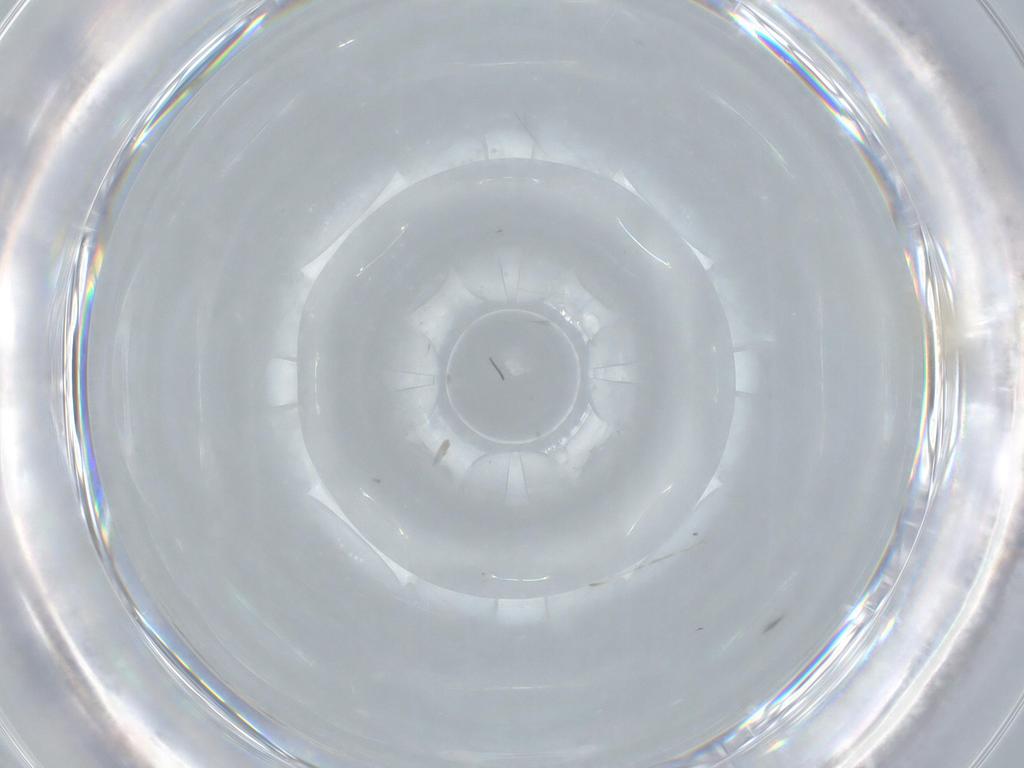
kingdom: Animalia
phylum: Arthropoda
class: Insecta
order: Diptera
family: Cecidomyiidae
